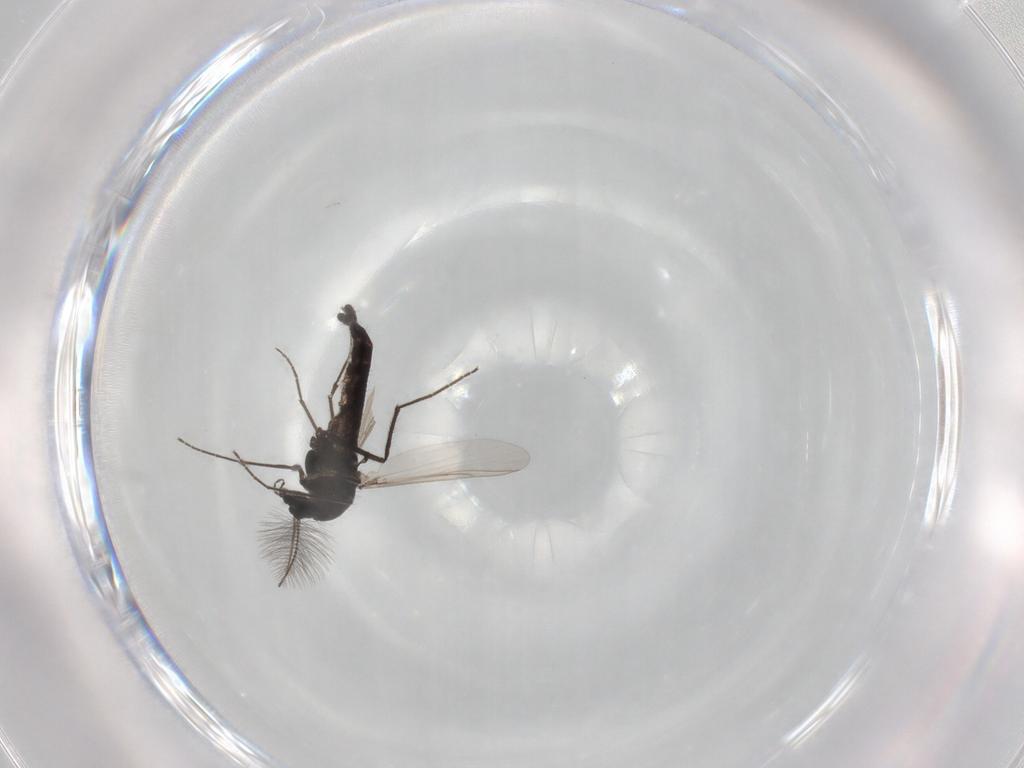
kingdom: Animalia
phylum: Arthropoda
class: Insecta
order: Diptera
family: Chironomidae
